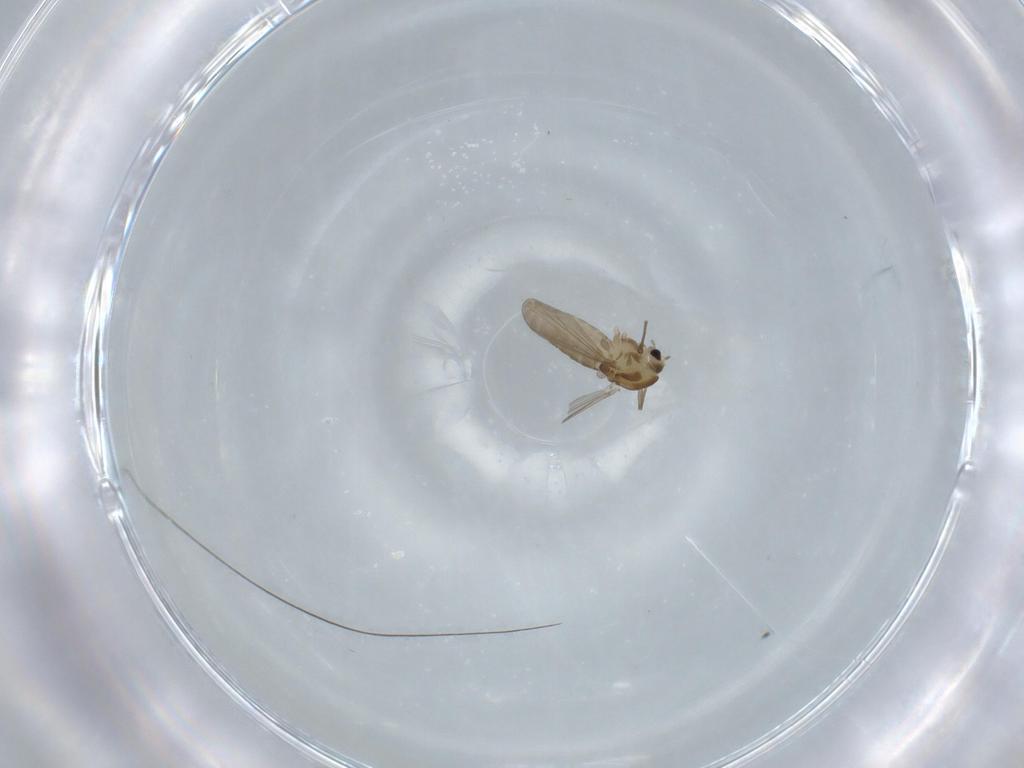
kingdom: Animalia
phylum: Arthropoda
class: Insecta
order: Diptera
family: Chironomidae
